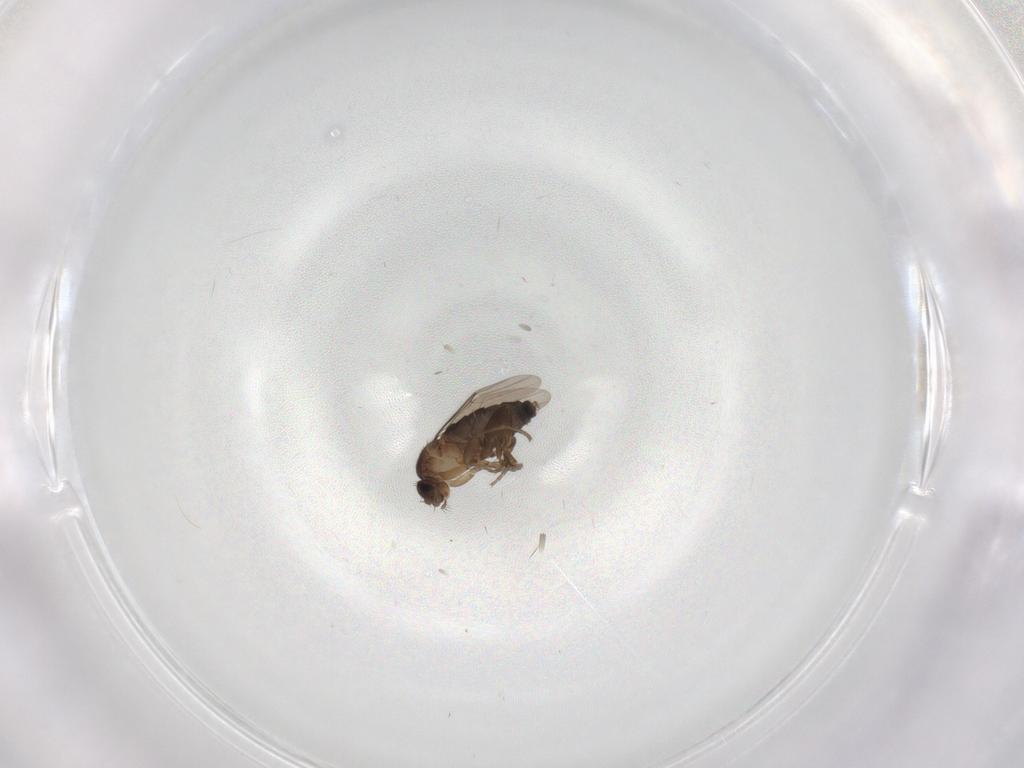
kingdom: Animalia
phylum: Arthropoda
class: Insecta
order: Diptera
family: Phoridae
